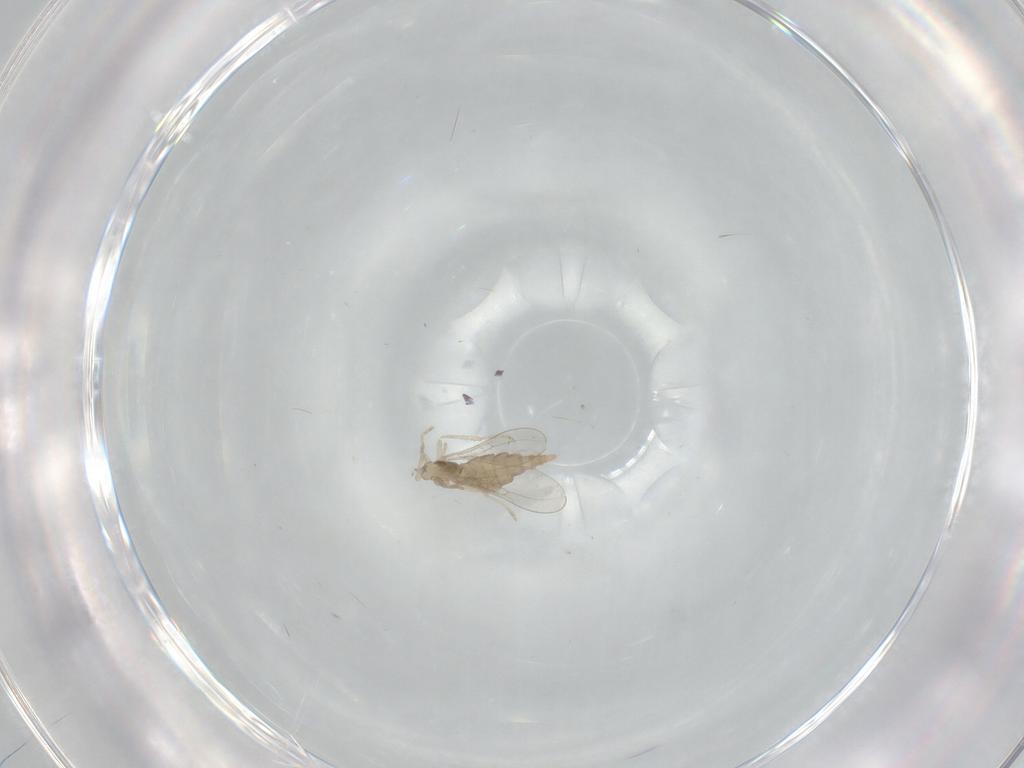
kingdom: Animalia
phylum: Arthropoda
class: Insecta
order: Diptera
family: Cecidomyiidae
